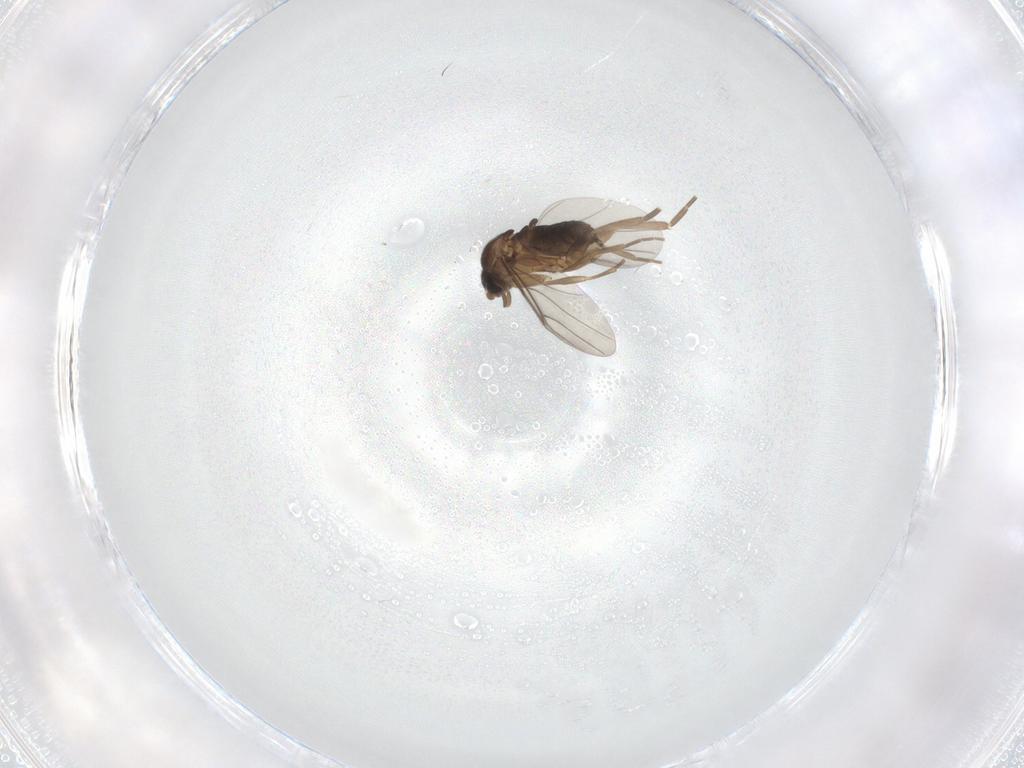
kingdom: Animalia
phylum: Arthropoda
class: Insecta
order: Diptera
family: Phoridae
